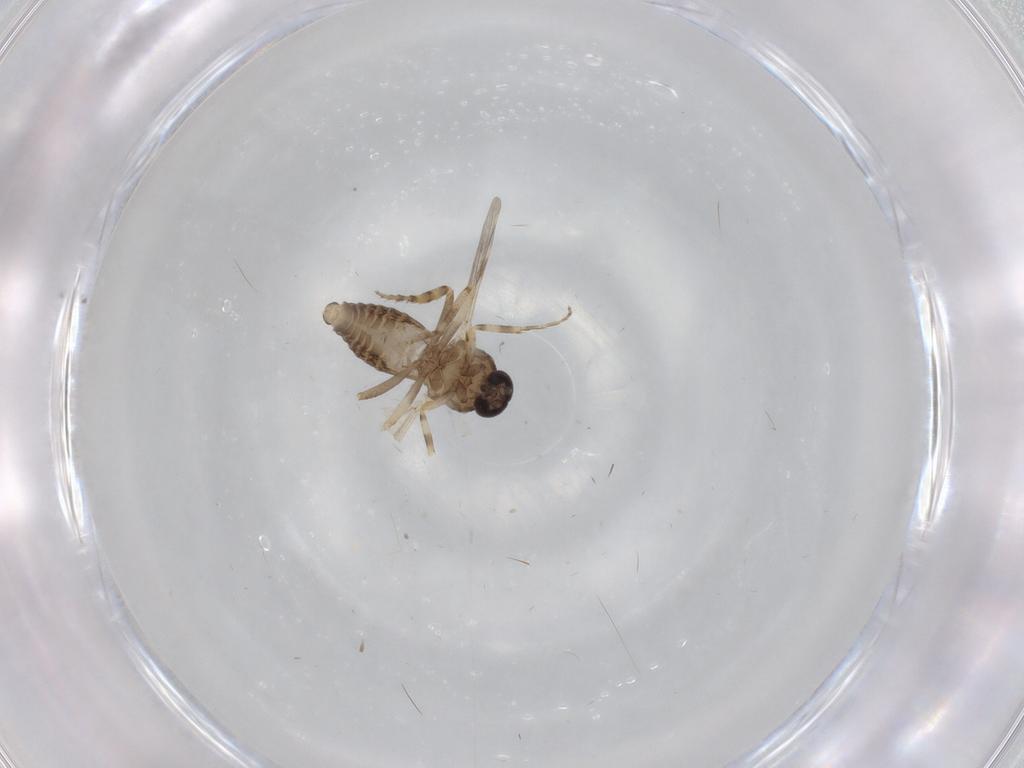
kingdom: Animalia
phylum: Arthropoda
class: Insecta
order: Diptera
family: Ceratopogonidae
